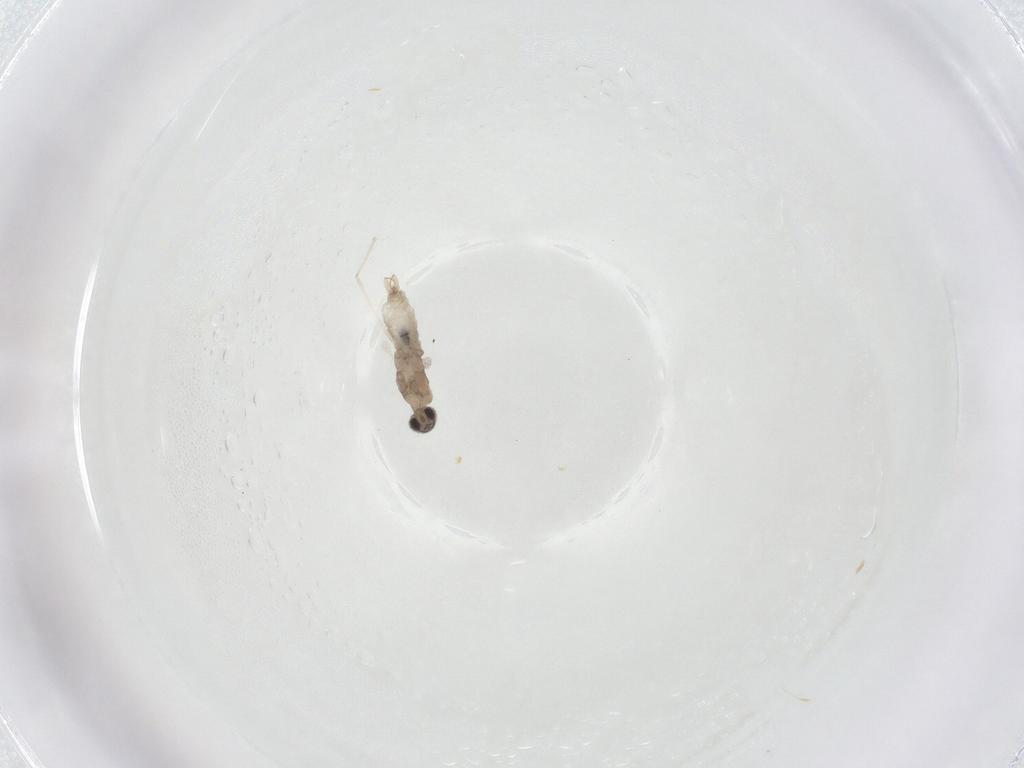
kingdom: Animalia
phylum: Arthropoda
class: Insecta
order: Diptera
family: Cecidomyiidae
